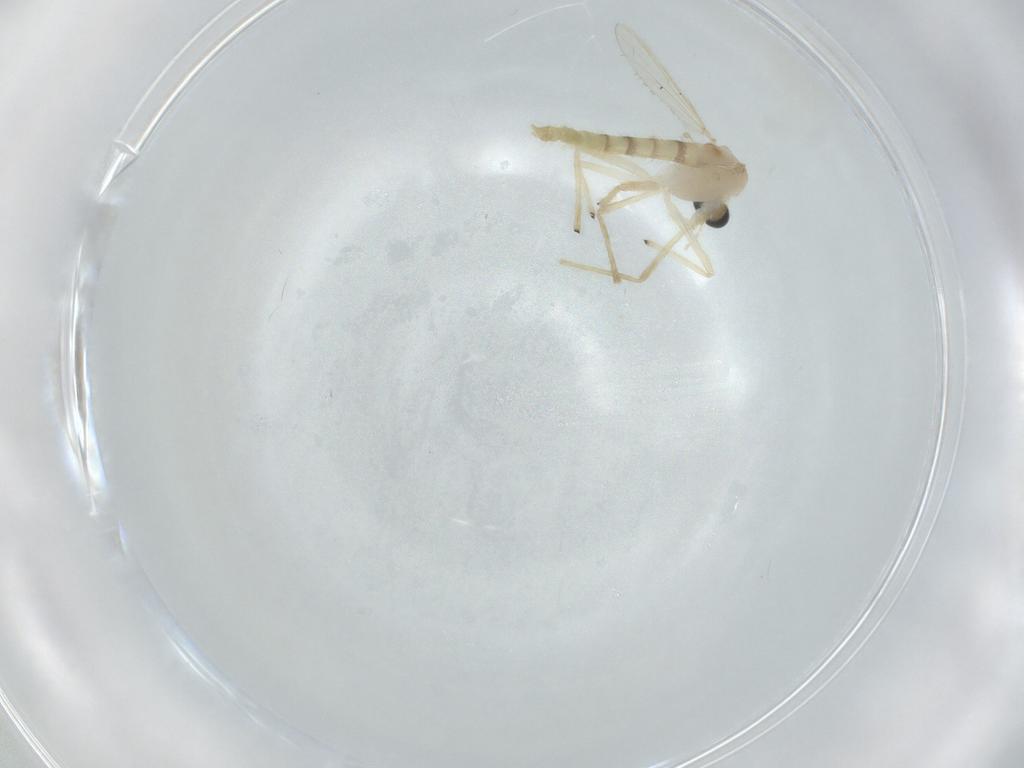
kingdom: Animalia
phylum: Arthropoda
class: Insecta
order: Diptera
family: Chironomidae
